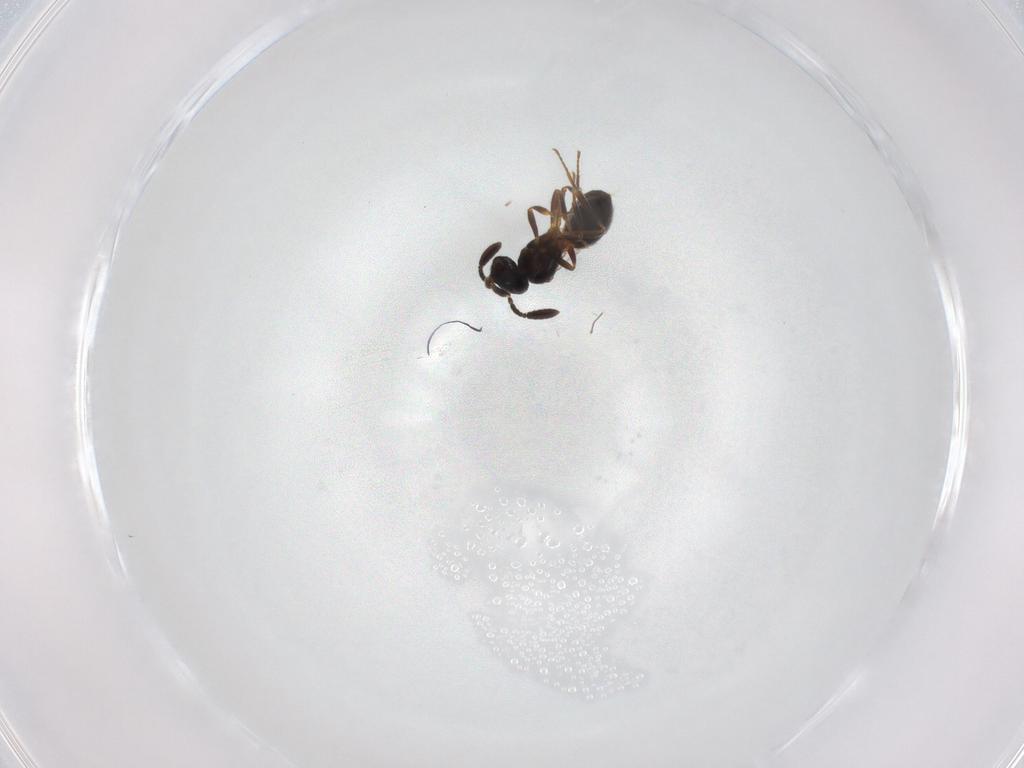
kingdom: Animalia
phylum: Arthropoda
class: Insecta
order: Hymenoptera
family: Scelionidae
